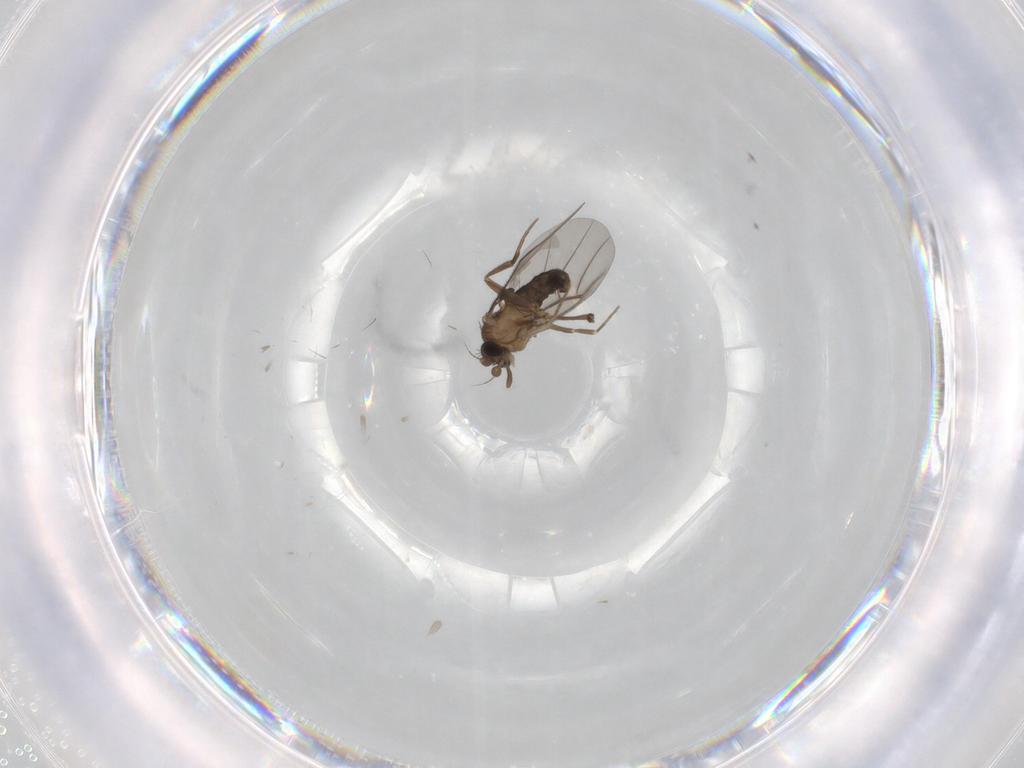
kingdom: Animalia
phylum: Arthropoda
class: Insecta
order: Diptera
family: Phoridae
